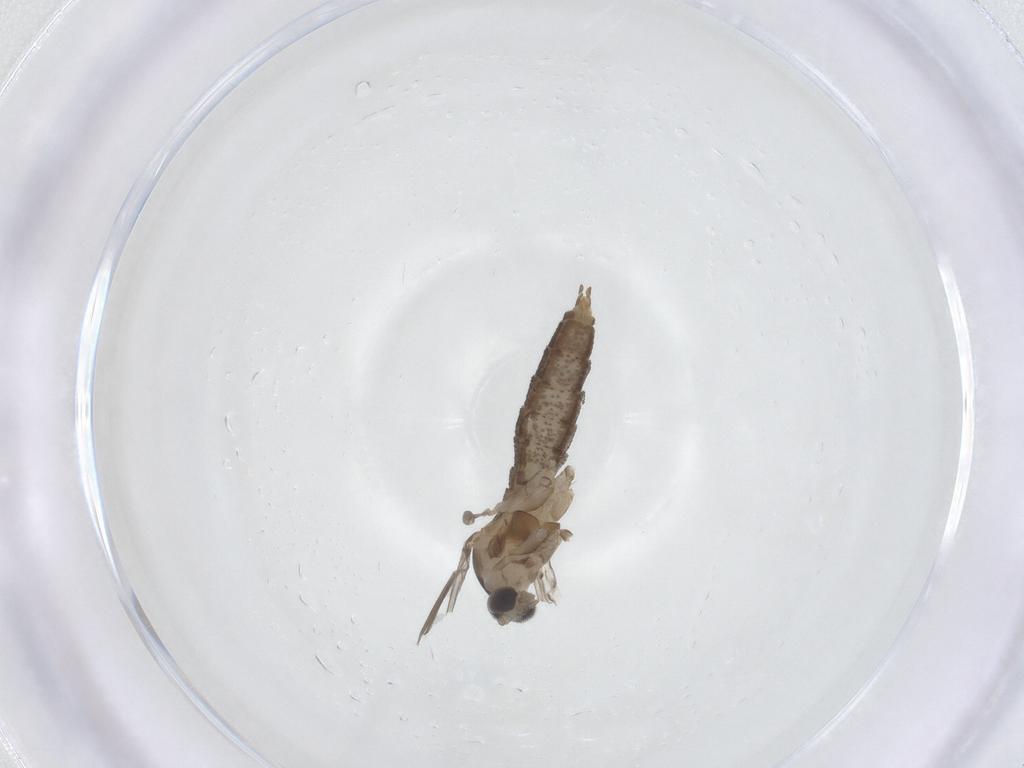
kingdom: Animalia
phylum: Arthropoda
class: Insecta
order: Diptera
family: Cecidomyiidae
